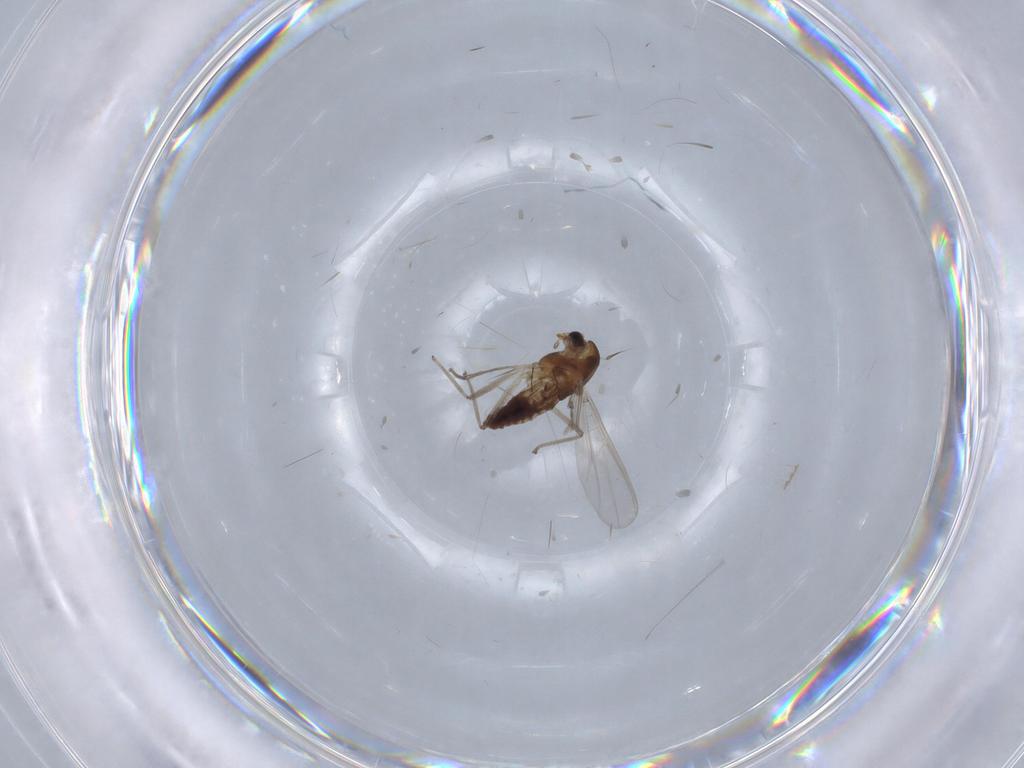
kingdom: Animalia
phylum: Arthropoda
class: Insecta
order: Diptera
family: Chironomidae
